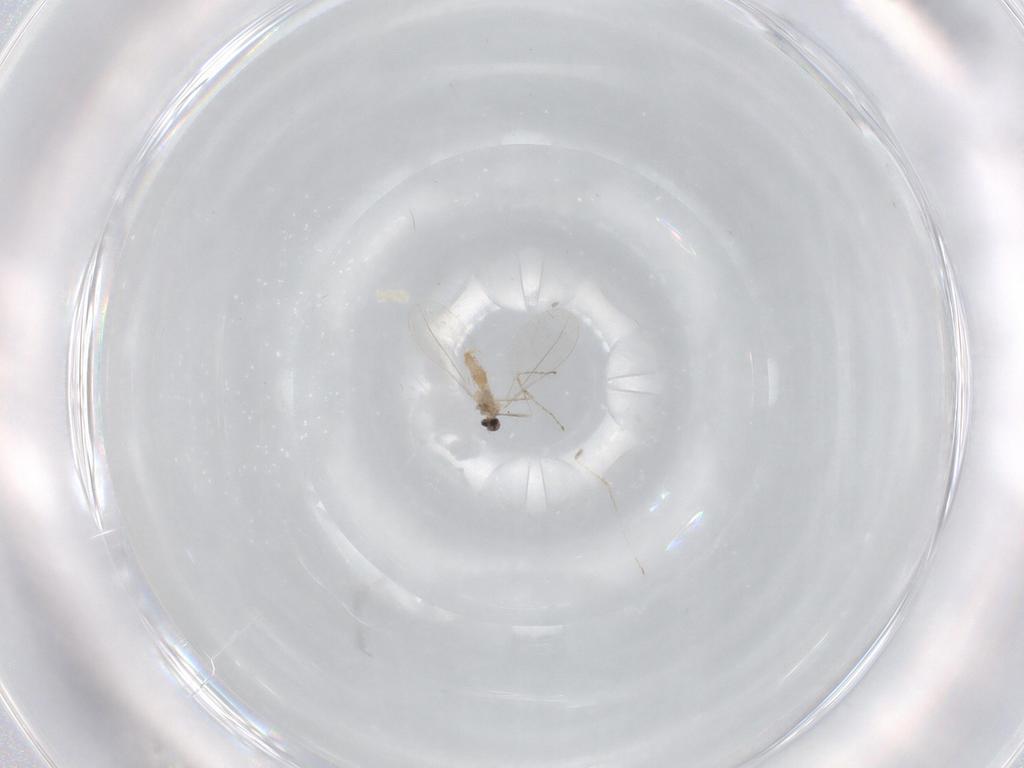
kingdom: Animalia
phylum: Arthropoda
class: Insecta
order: Diptera
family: Cecidomyiidae
